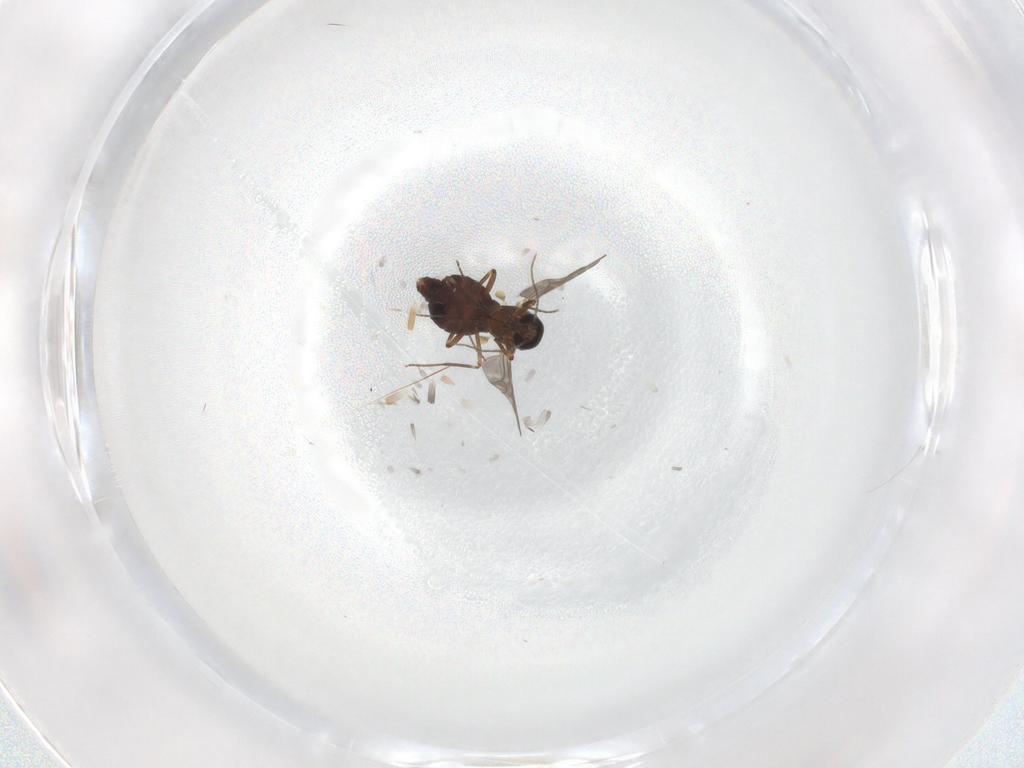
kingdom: Animalia
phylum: Arthropoda
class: Insecta
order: Diptera
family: Ceratopogonidae
